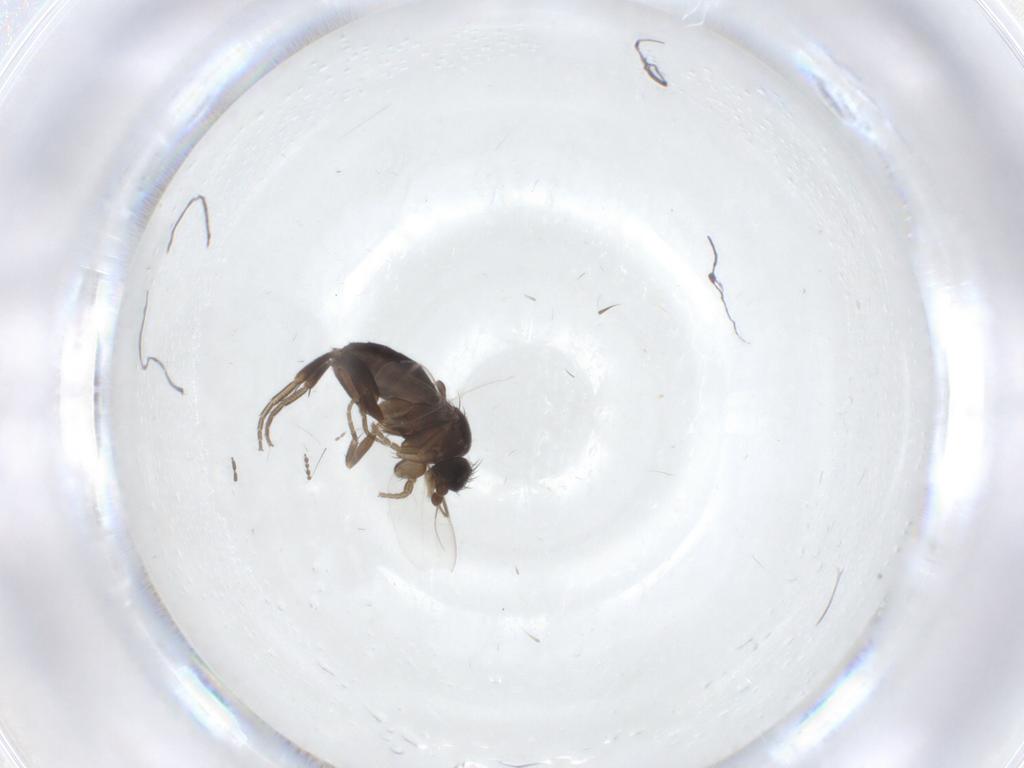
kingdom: Animalia
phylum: Arthropoda
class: Insecta
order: Diptera
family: Phoridae
